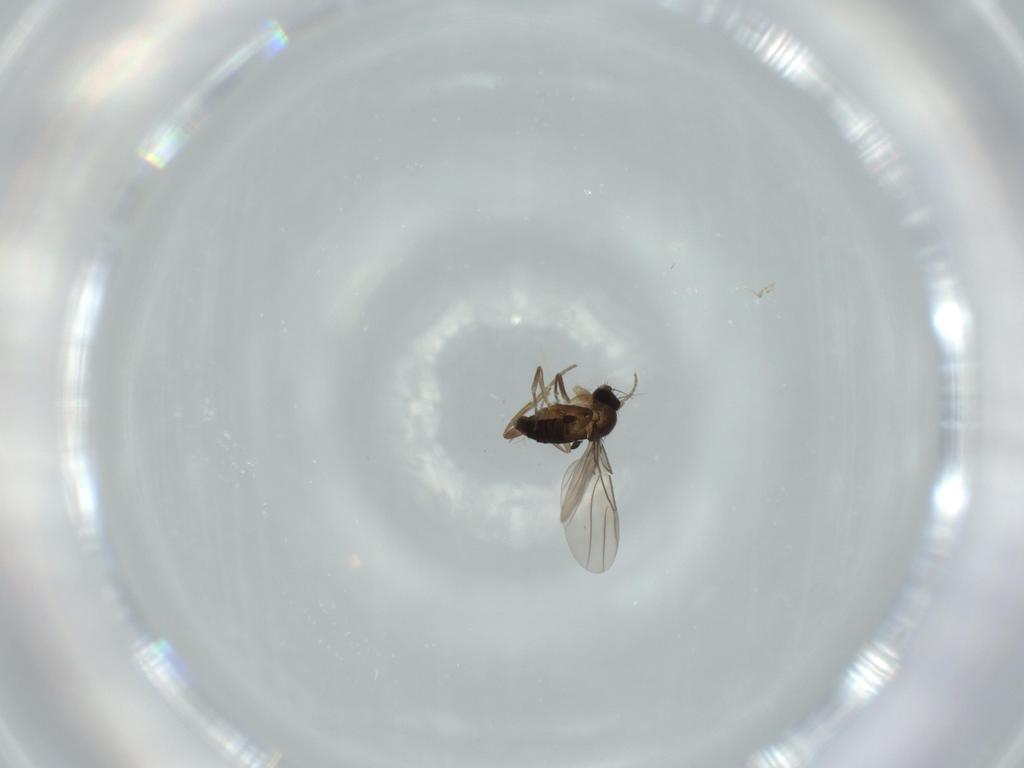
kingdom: Animalia
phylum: Arthropoda
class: Insecta
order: Diptera
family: Phoridae
